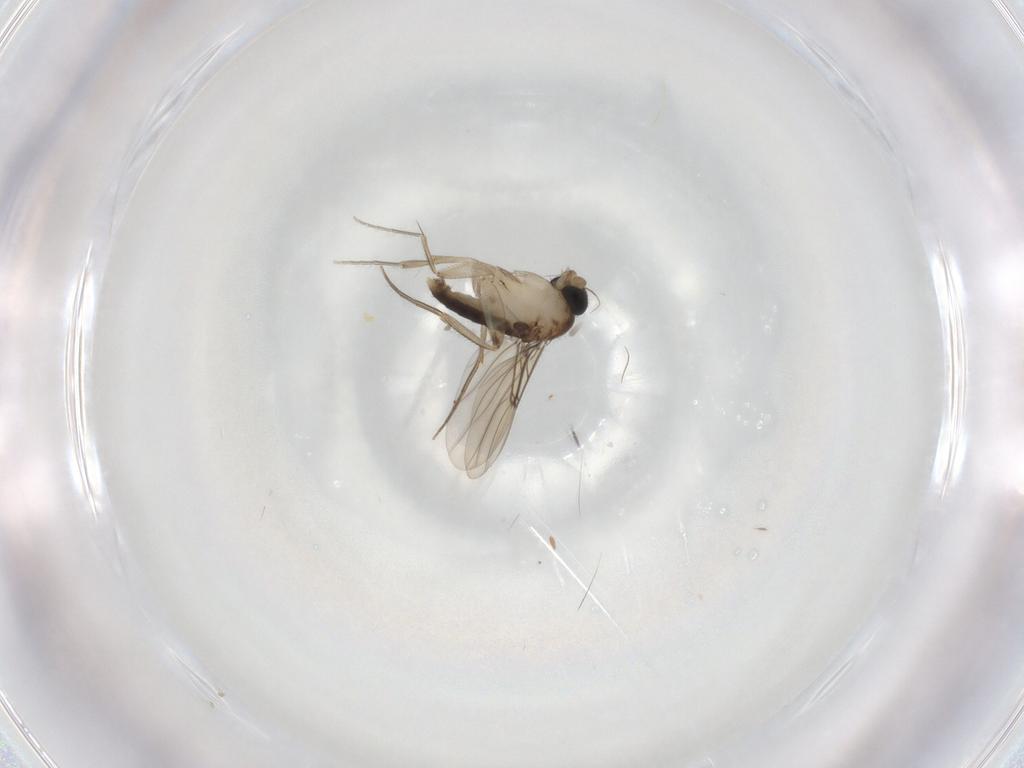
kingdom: Animalia
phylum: Arthropoda
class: Insecta
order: Diptera
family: Phoridae
